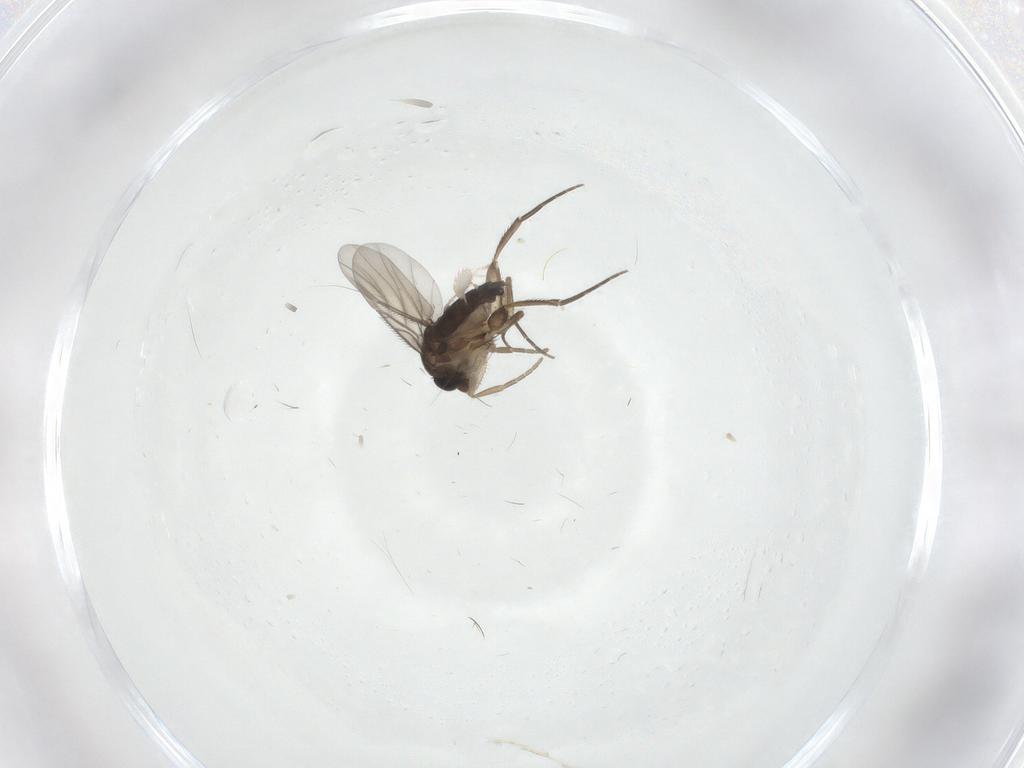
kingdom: Animalia
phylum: Arthropoda
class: Insecta
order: Diptera
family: Phoridae
